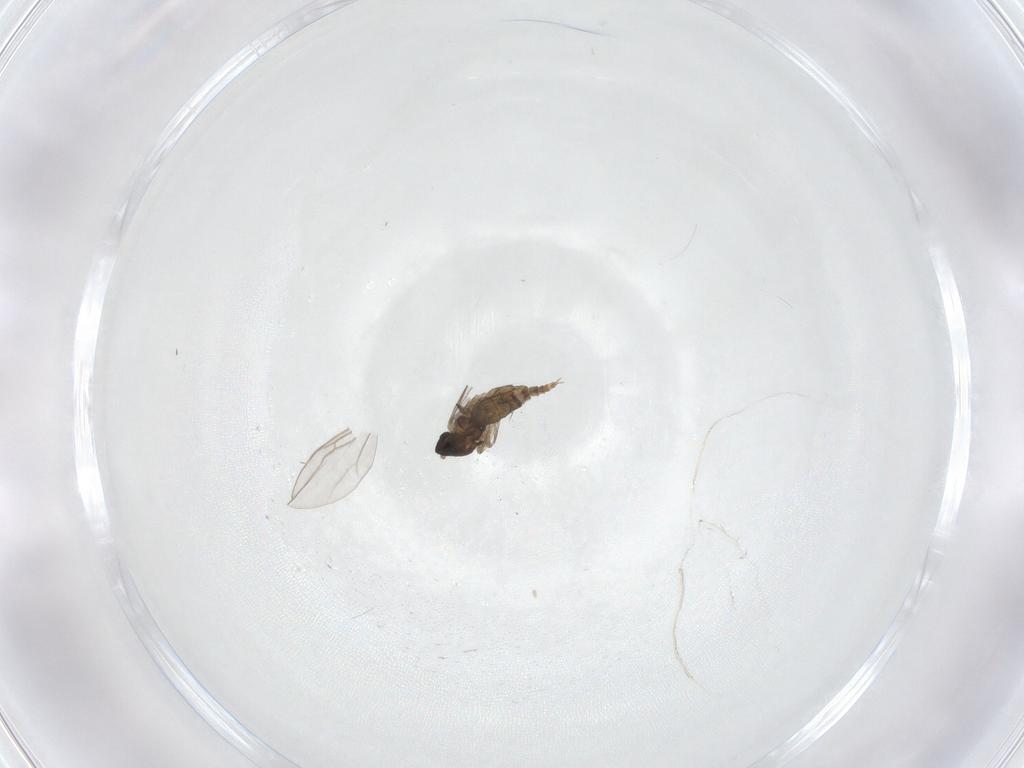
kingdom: Animalia
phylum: Arthropoda
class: Insecta
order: Diptera
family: Cecidomyiidae
